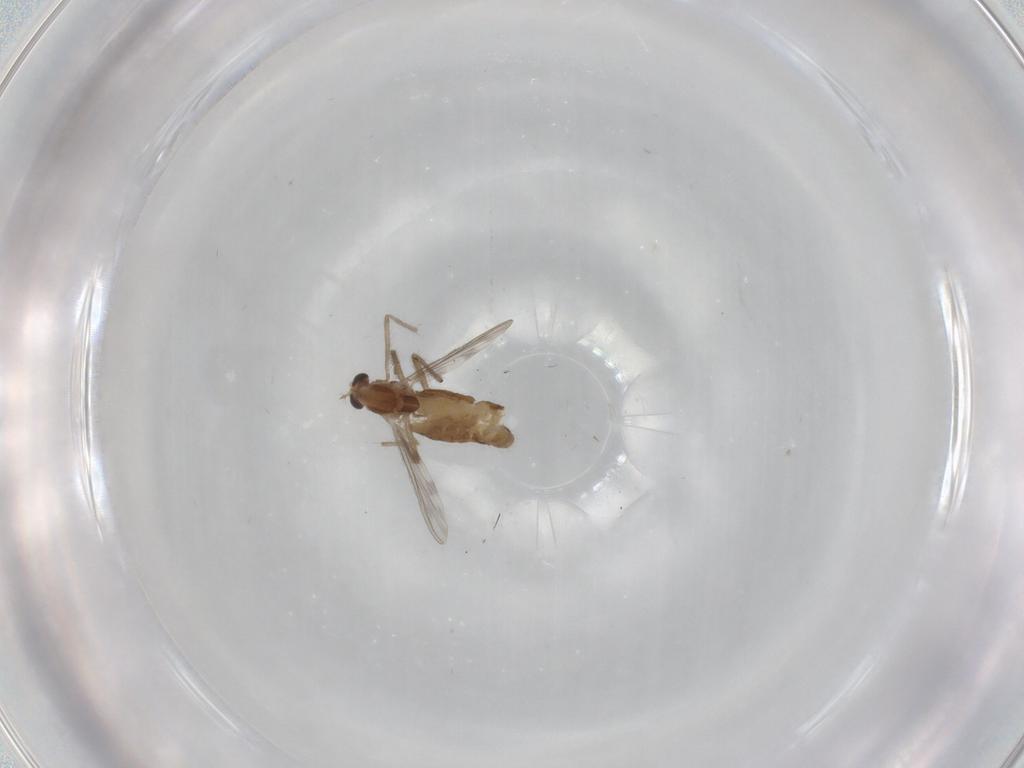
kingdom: Animalia
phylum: Arthropoda
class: Insecta
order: Diptera
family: Chironomidae
